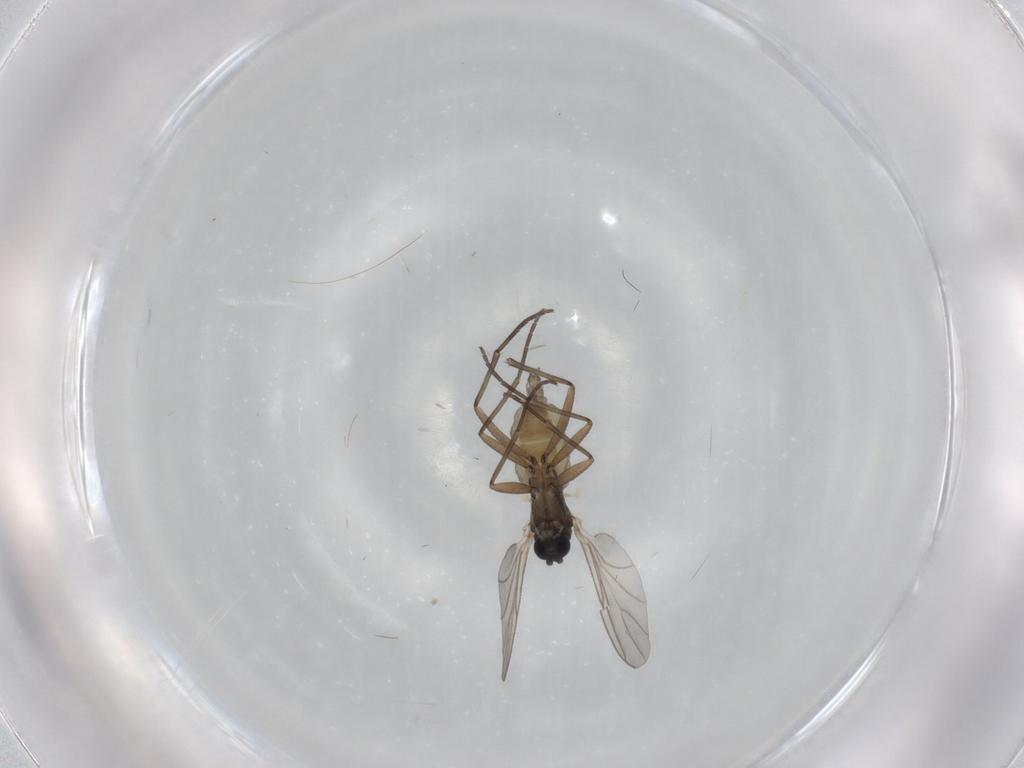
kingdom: Animalia
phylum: Arthropoda
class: Insecta
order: Diptera
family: Sciaridae
